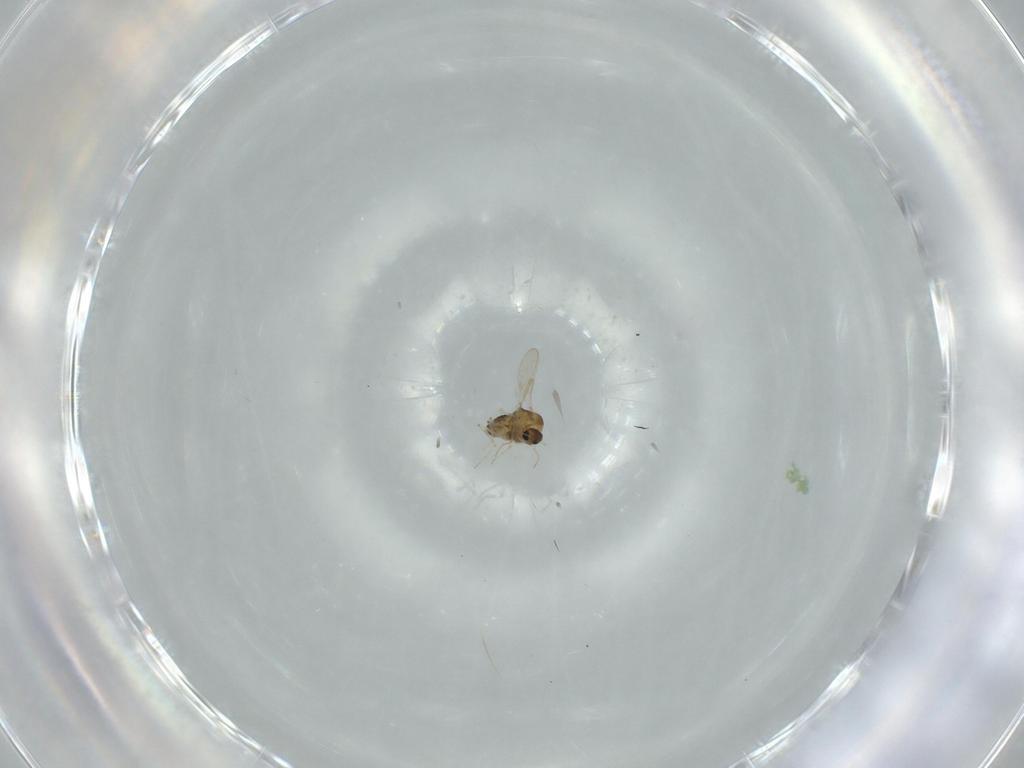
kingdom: Animalia
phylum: Arthropoda
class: Insecta
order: Diptera
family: Chironomidae
